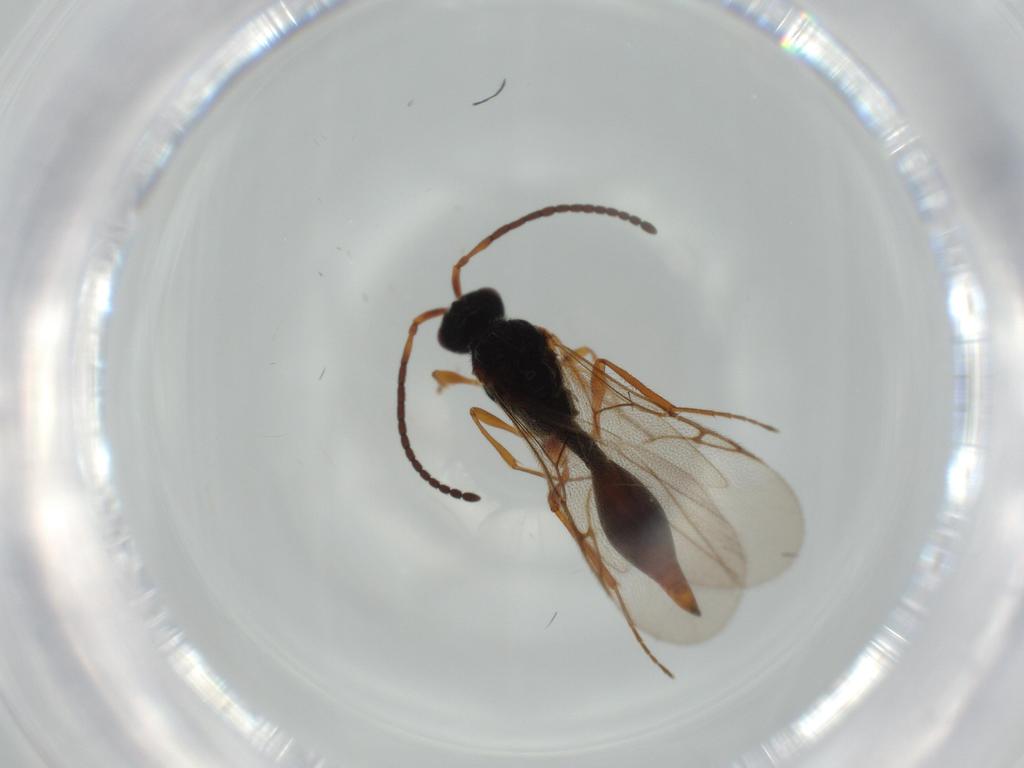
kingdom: Animalia
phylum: Arthropoda
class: Insecta
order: Hymenoptera
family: Diapriidae
